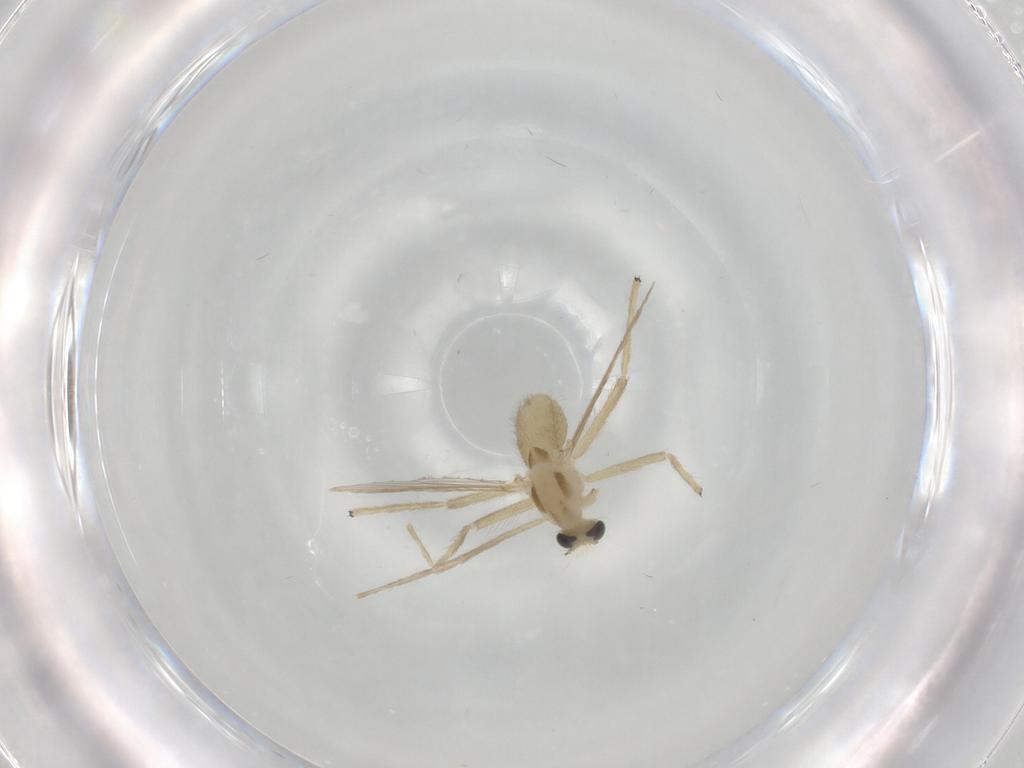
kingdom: Animalia
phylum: Arthropoda
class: Insecta
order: Diptera
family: Chironomidae
